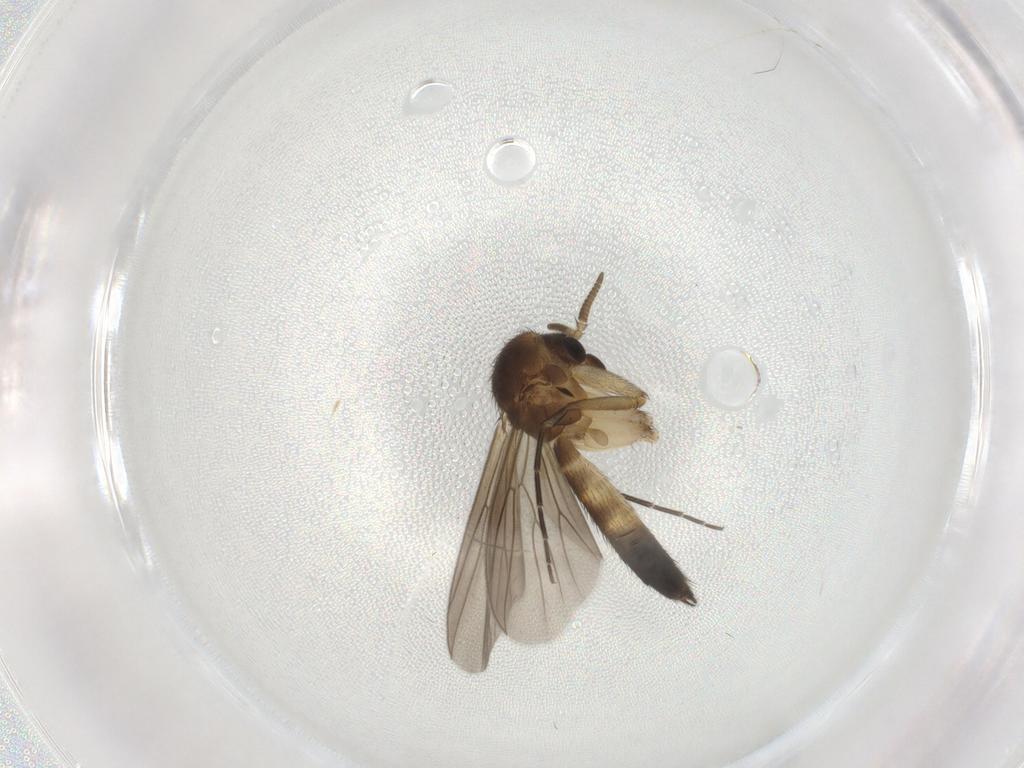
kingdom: Animalia
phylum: Arthropoda
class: Insecta
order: Diptera
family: Mycetophilidae
